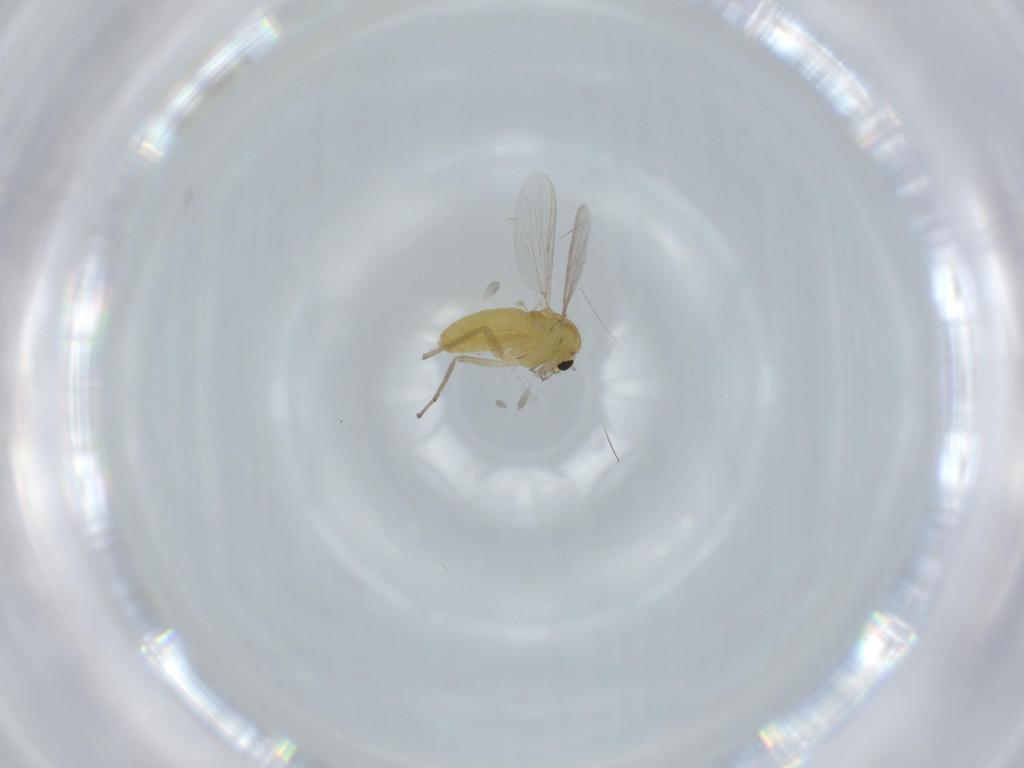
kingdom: Animalia
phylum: Arthropoda
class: Insecta
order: Diptera
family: Chironomidae
